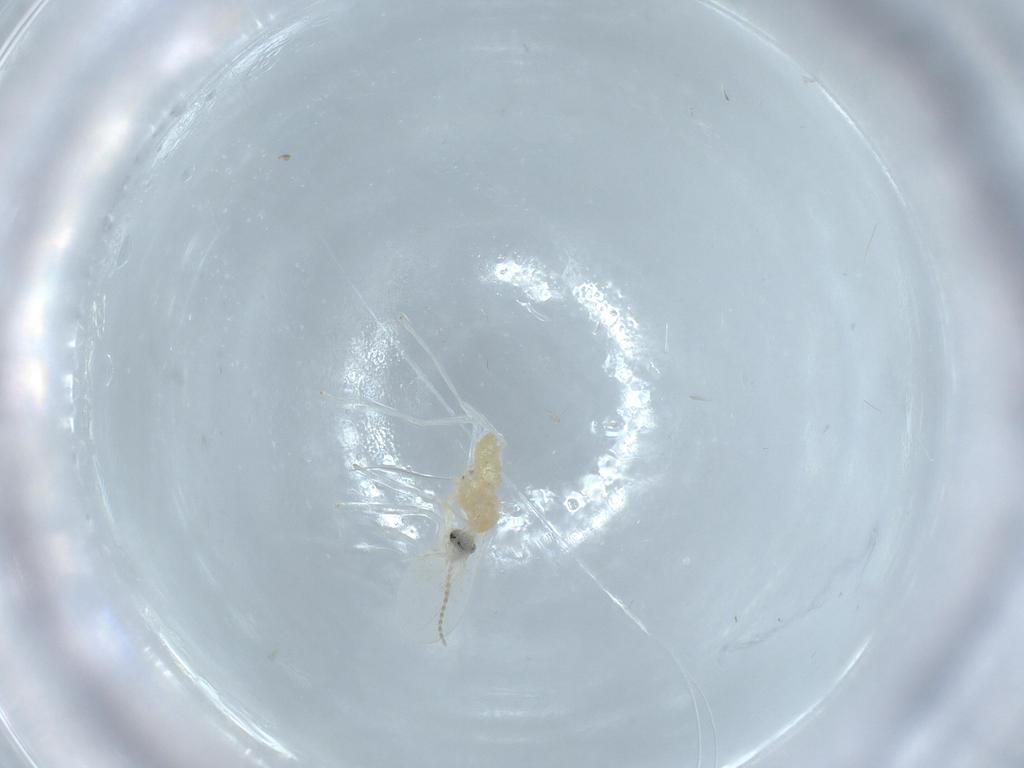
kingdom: Animalia
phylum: Arthropoda
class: Insecta
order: Diptera
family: Cecidomyiidae
